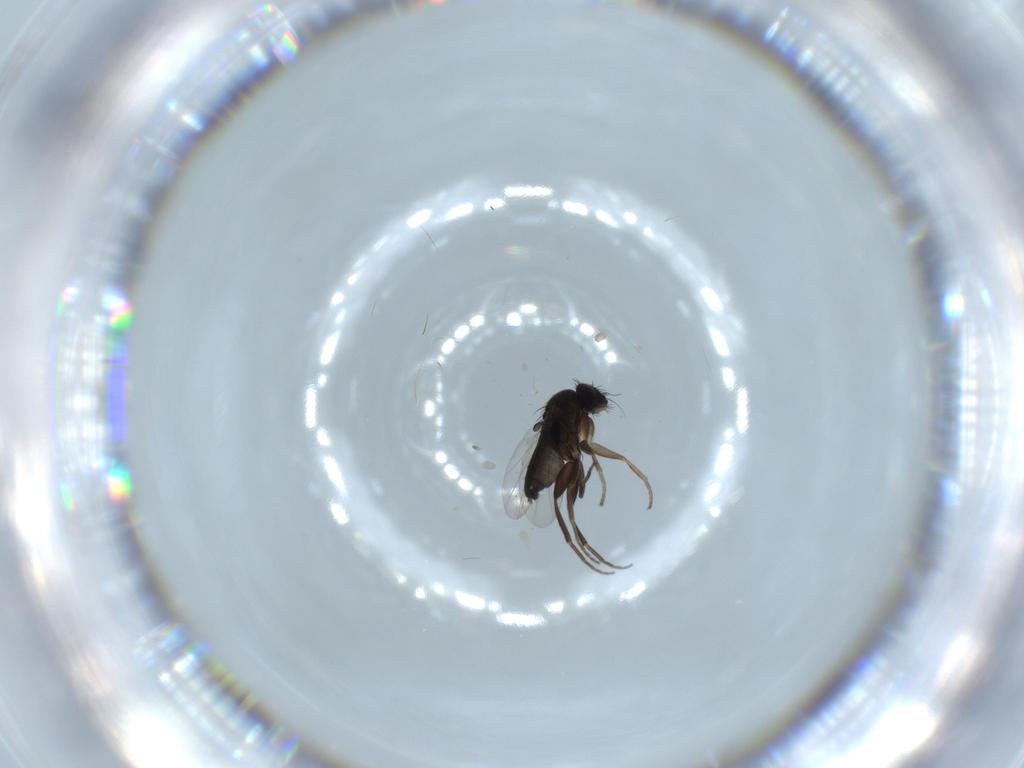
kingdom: Animalia
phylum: Arthropoda
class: Insecta
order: Diptera
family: Phoridae
